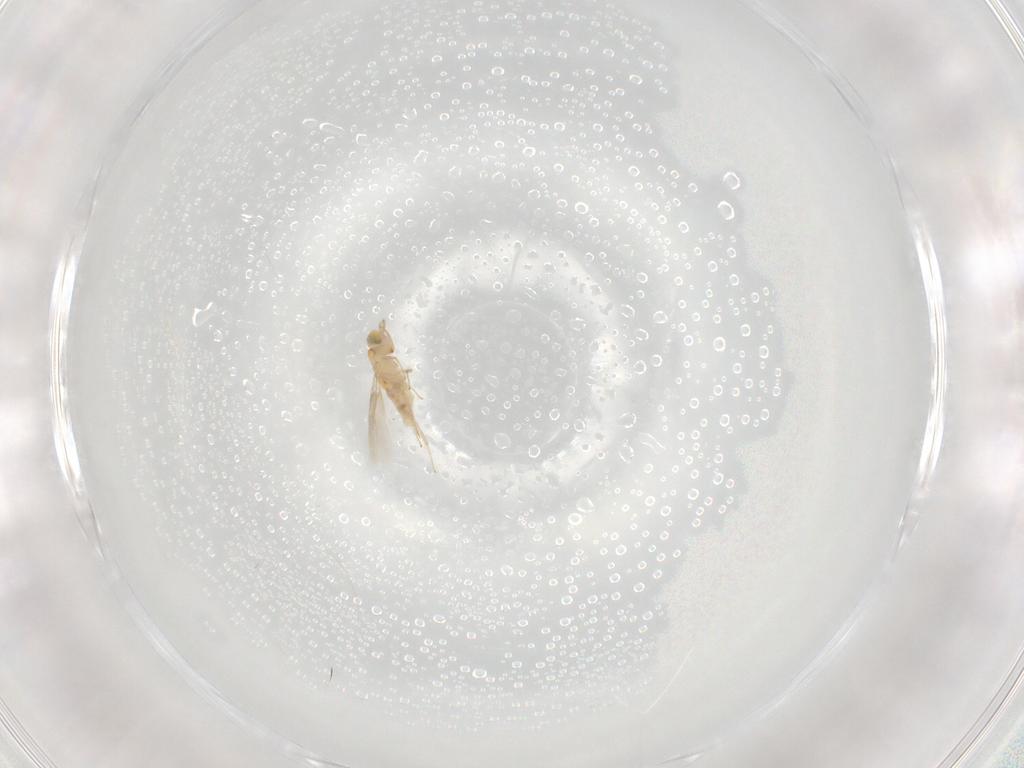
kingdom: Animalia
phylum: Arthropoda
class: Insecta
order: Hymenoptera
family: Aphelinidae
